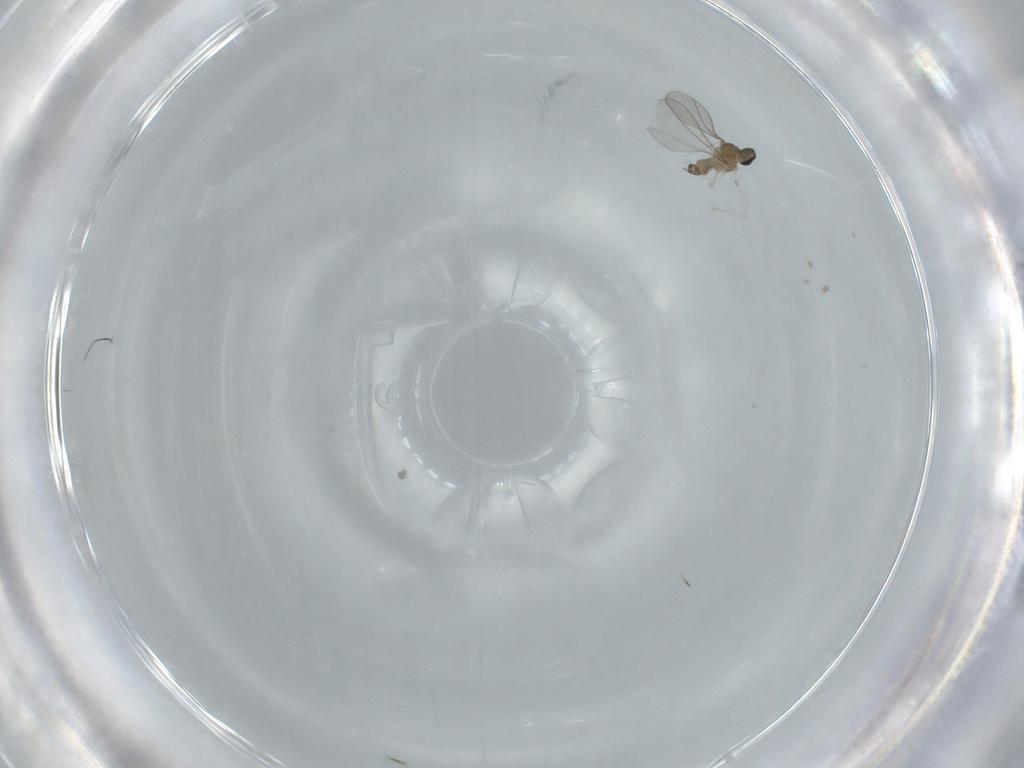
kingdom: Animalia
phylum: Arthropoda
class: Insecta
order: Diptera
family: Cecidomyiidae
